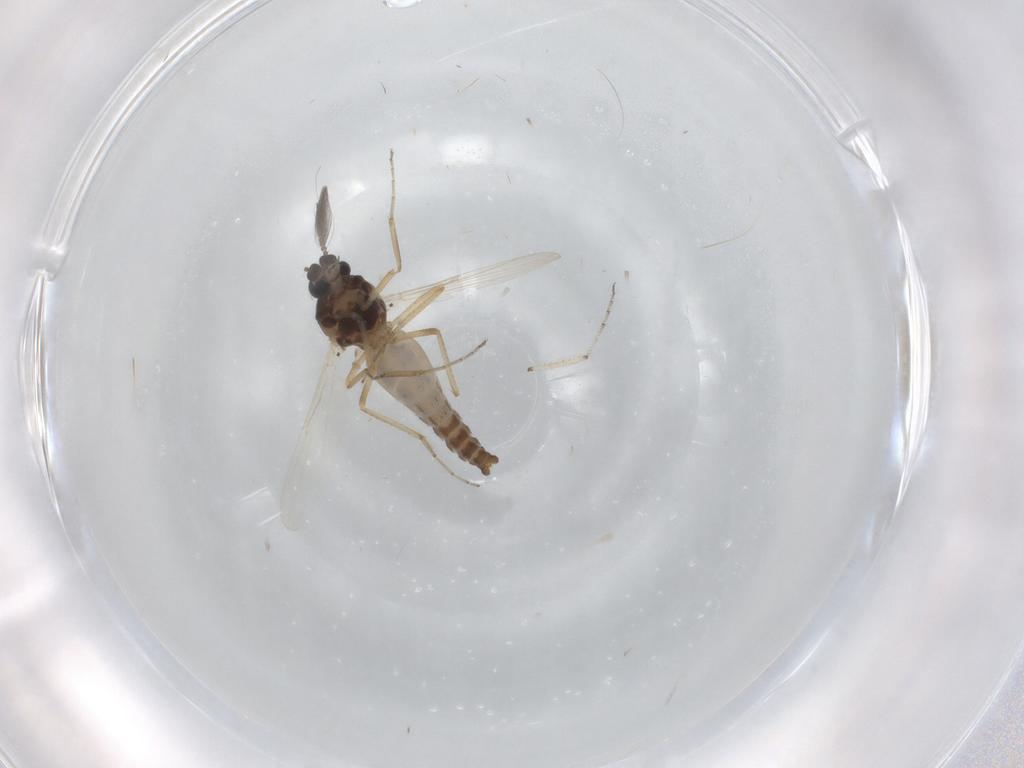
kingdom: Animalia
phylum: Arthropoda
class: Insecta
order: Diptera
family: Ceratopogonidae
